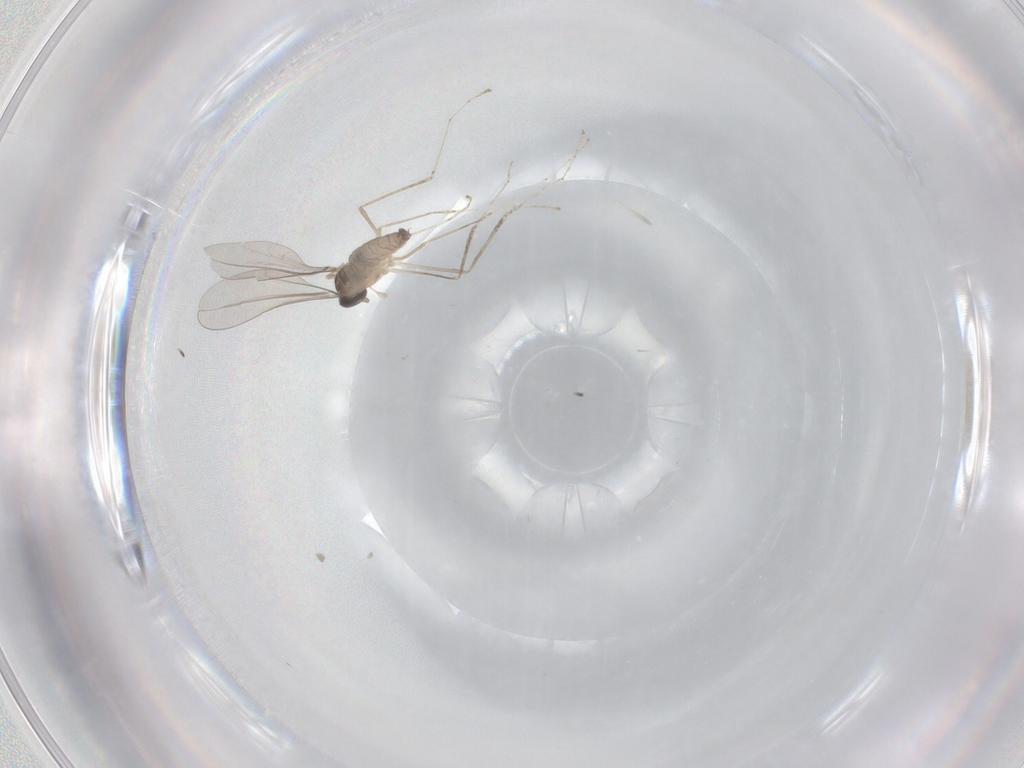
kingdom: Animalia
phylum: Arthropoda
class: Insecta
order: Diptera
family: Cecidomyiidae
